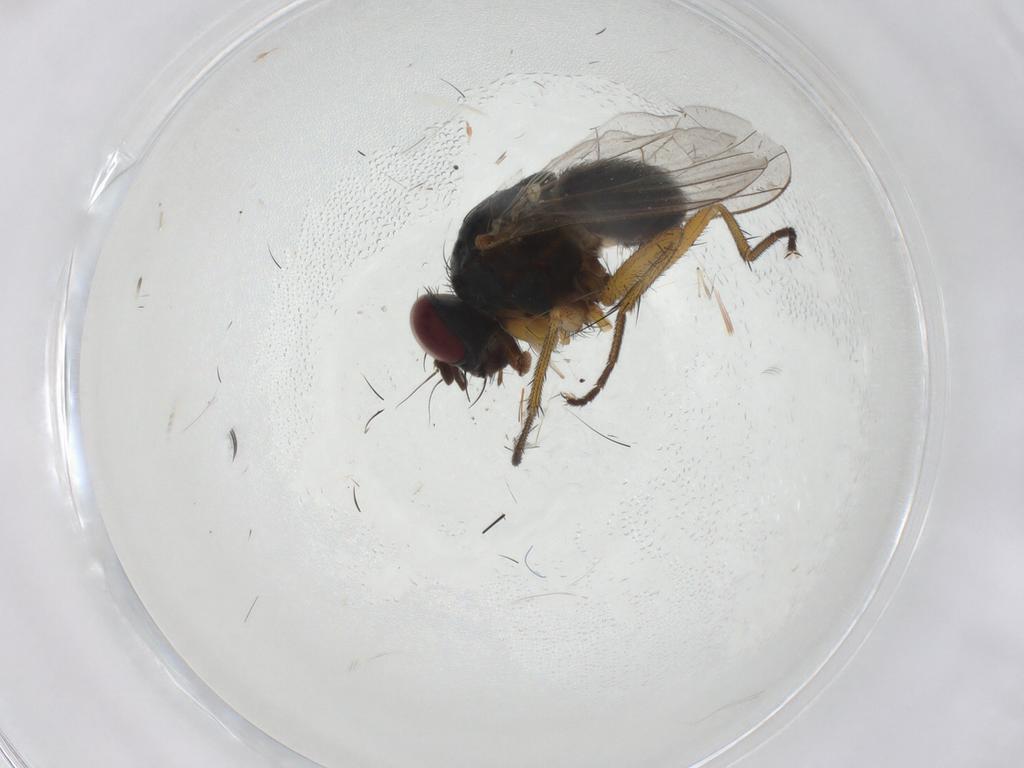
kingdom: Animalia
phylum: Arthropoda
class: Insecta
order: Diptera
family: Muscidae
